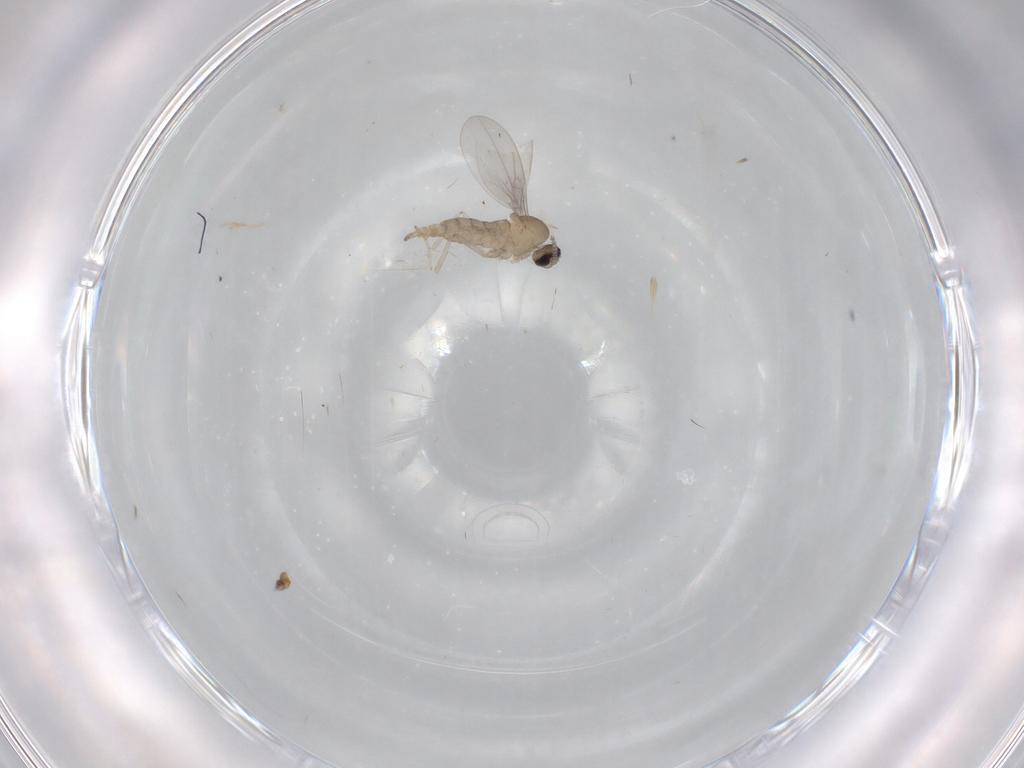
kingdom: Animalia
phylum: Arthropoda
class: Insecta
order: Diptera
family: Cecidomyiidae
